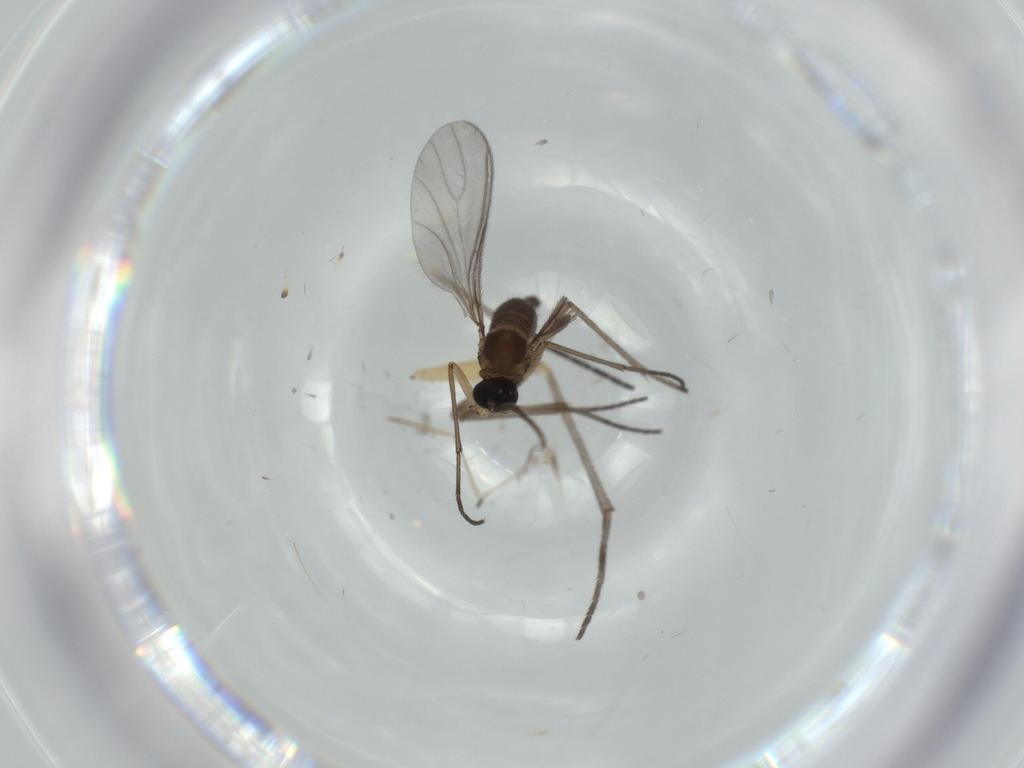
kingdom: Animalia
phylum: Arthropoda
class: Insecta
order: Diptera
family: Sciaridae
